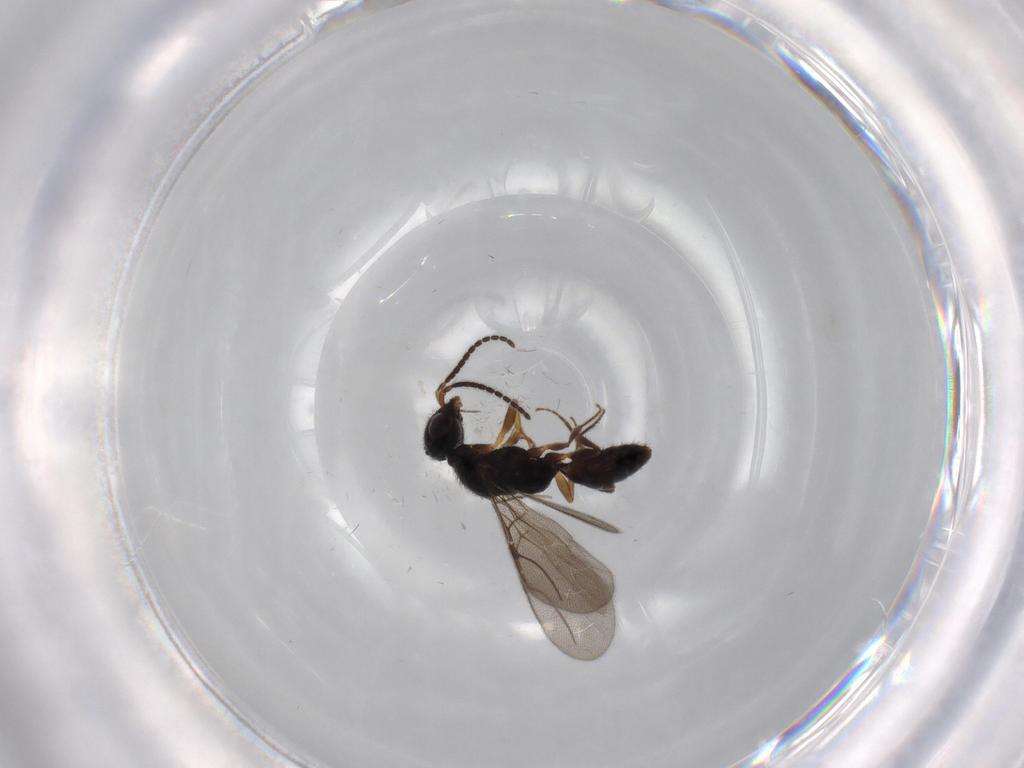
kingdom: Animalia
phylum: Arthropoda
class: Insecta
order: Hymenoptera
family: Bethylidae
